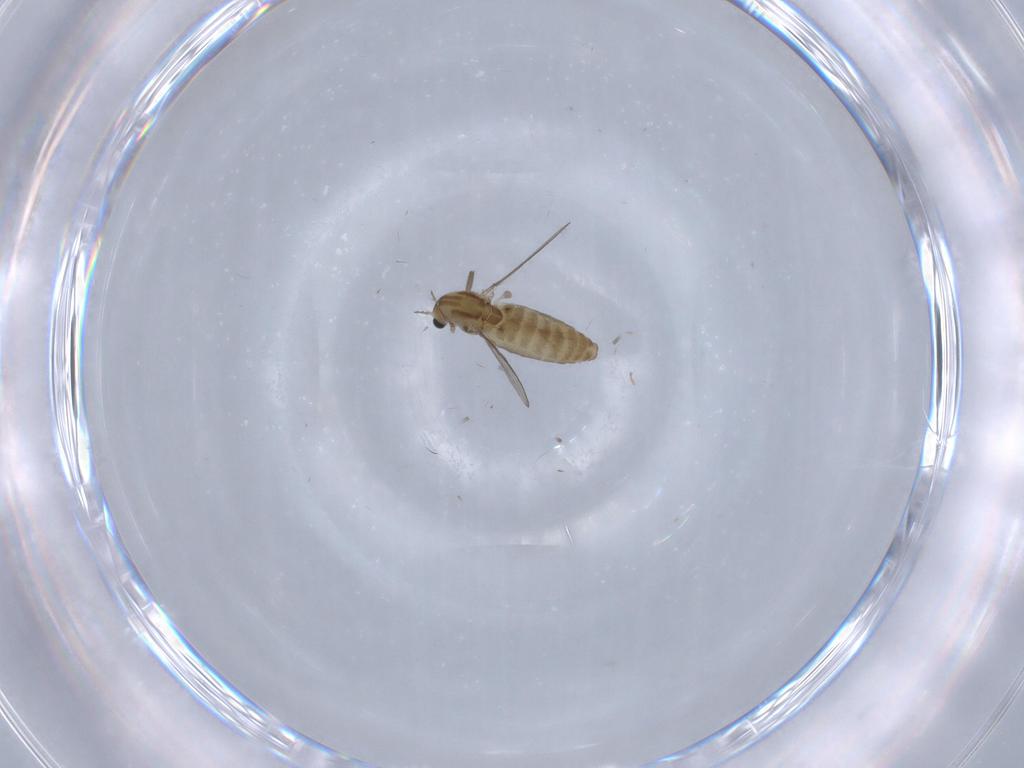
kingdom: Animalia
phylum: Arthropoda
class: Insecta
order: Diptera
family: Chironomidae
